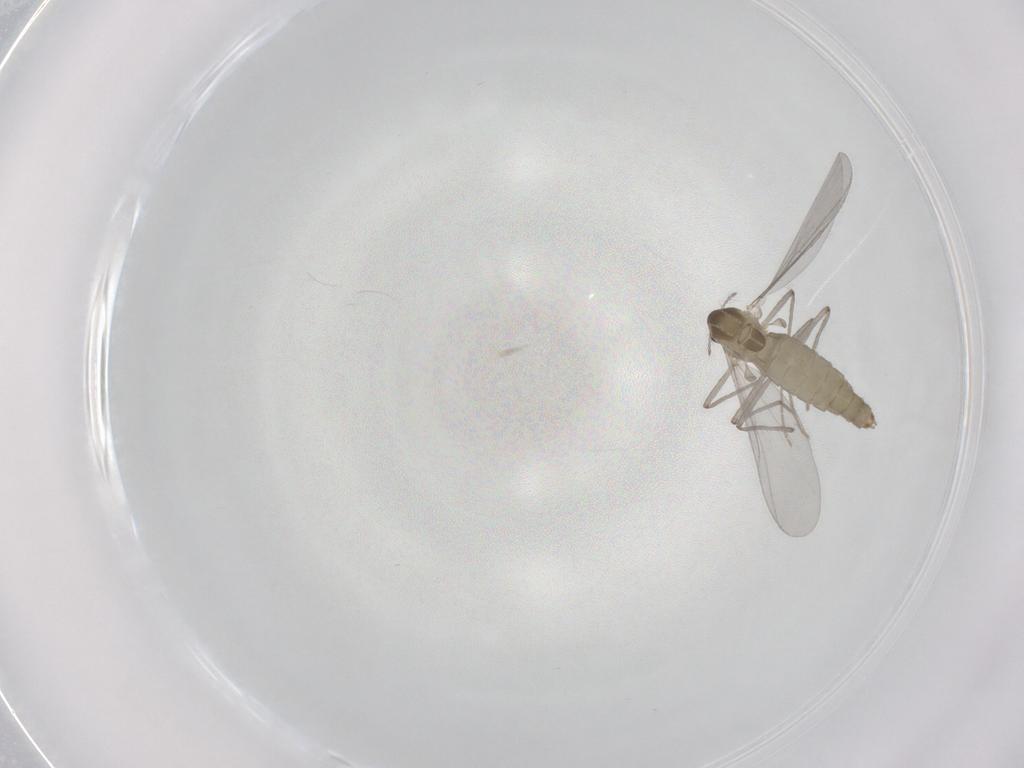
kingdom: Animalia
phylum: Arthropoda
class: Insecta
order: Diptera
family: Chironomidae
